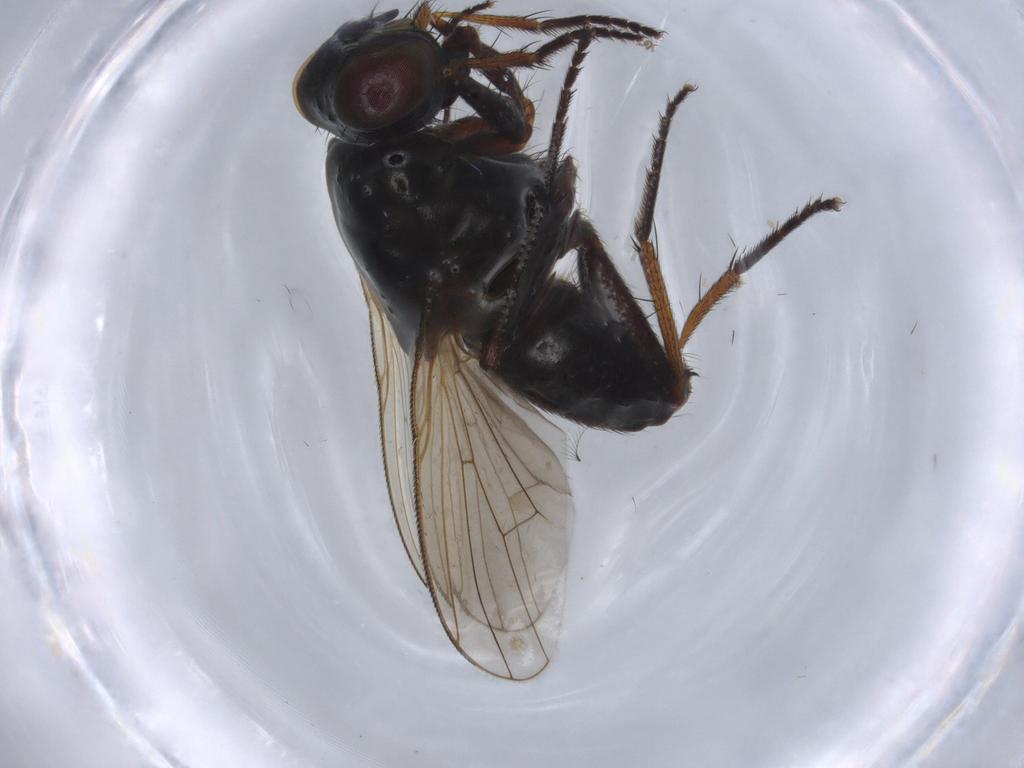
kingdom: Animalia
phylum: Arthropoda
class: Insecta
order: Diptera
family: Muscidae
